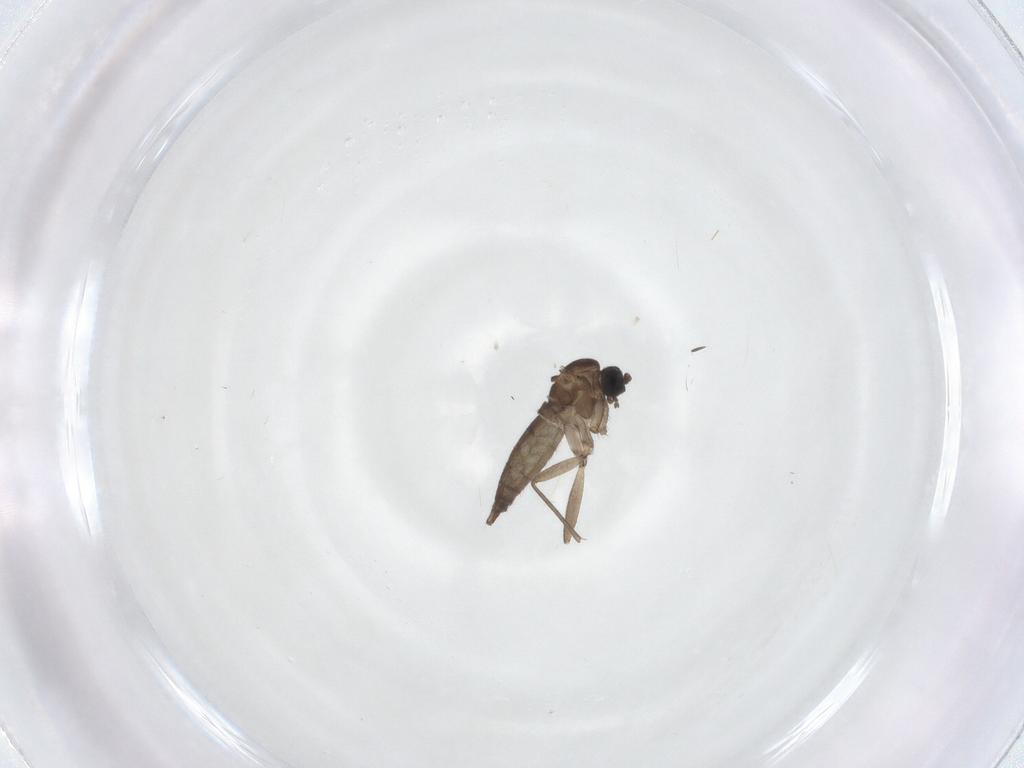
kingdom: Animalia
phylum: Arthropoda
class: Insecta
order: Diptera
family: Sciaridae
